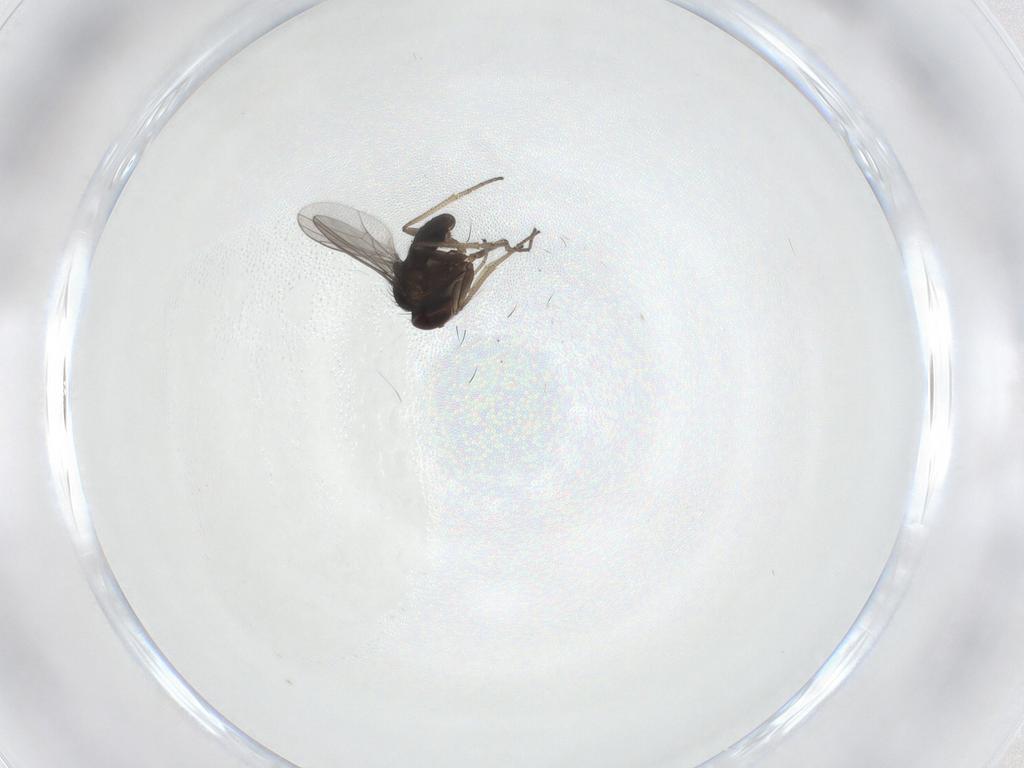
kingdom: Animalia
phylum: Arthropoda
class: Insecta
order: Diptera
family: Dolichopodidae
